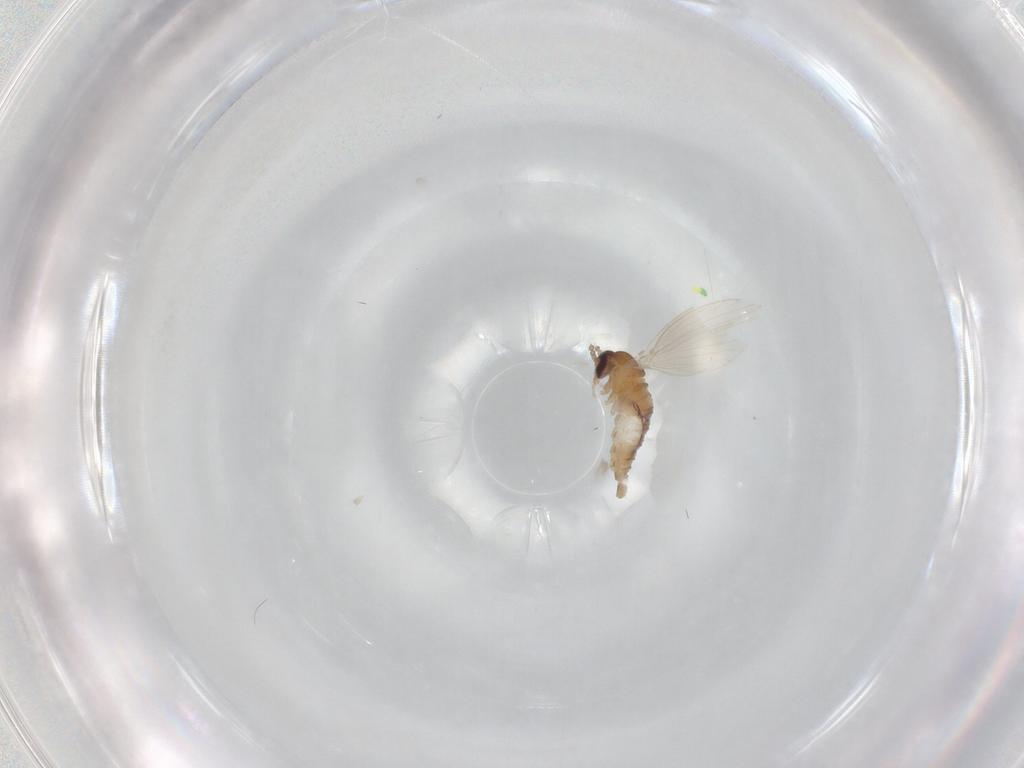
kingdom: Animalia
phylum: Arthropoda
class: Insecta
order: Diptera
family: Psychodidae
